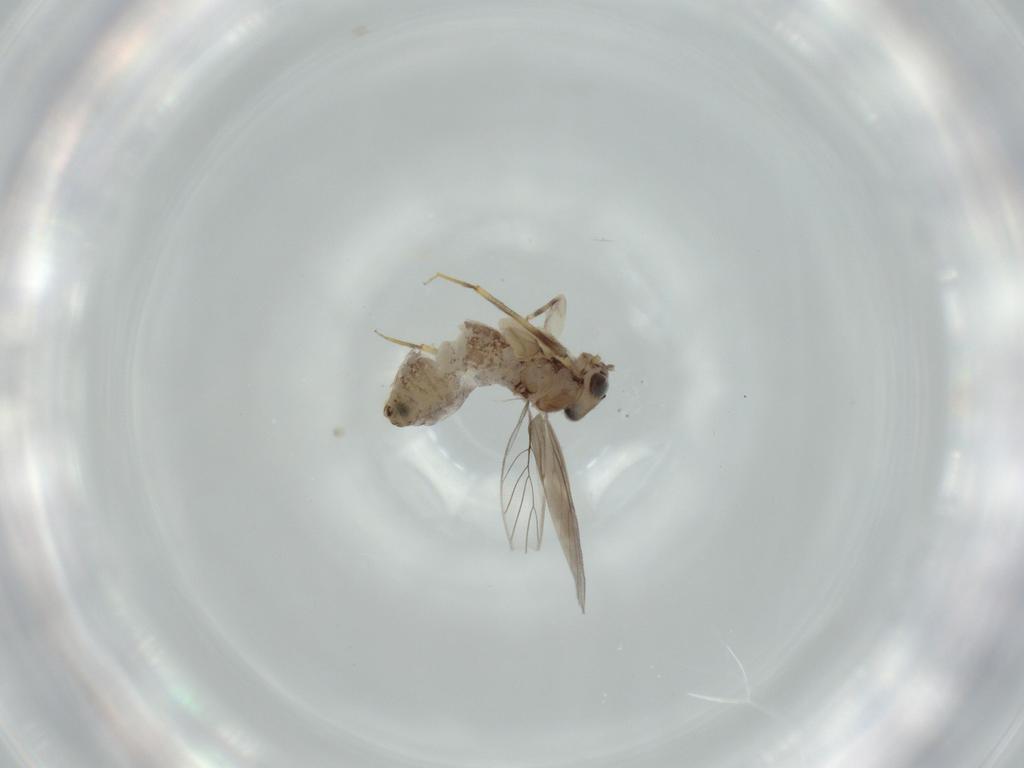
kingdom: Animalia
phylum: Arthropoda
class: Insecta
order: Psocodea
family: Lepidopsocidae
